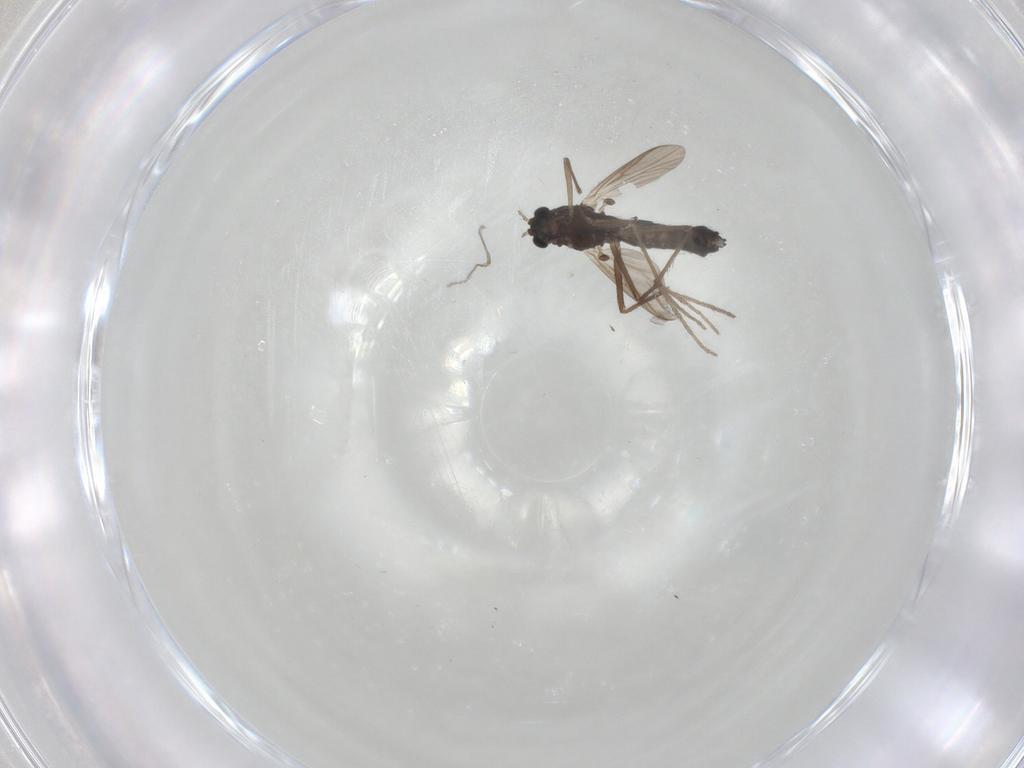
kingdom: Animalia
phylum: Arthropoda
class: Insecta
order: Diptera
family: Chironomidae
